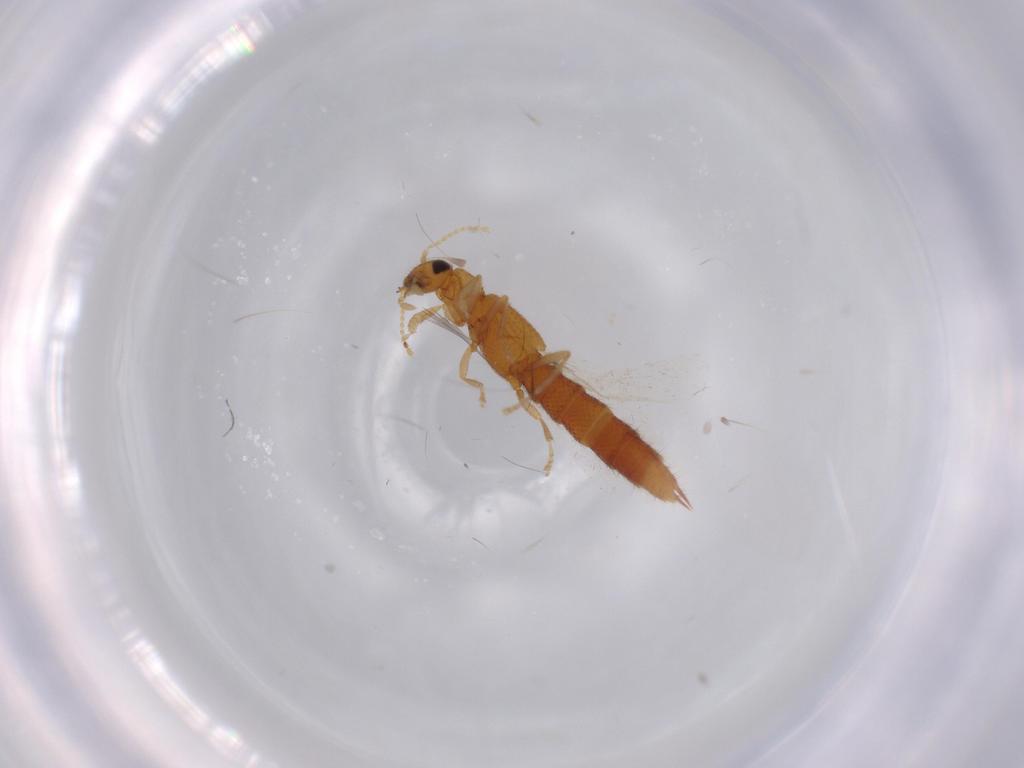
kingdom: Animalia
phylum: Arthropoda
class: Insecta
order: Coleoptera
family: Staphylinidae
